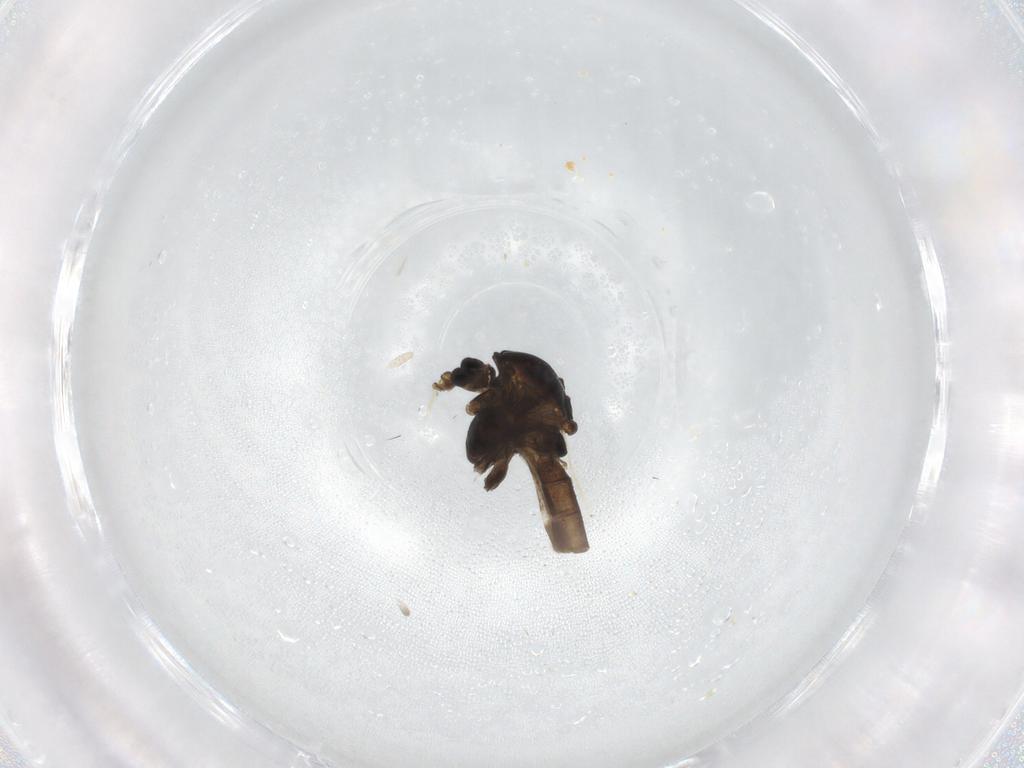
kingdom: Animalia
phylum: Arthropoda
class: Insecta
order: Diptera
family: Chironomidae
